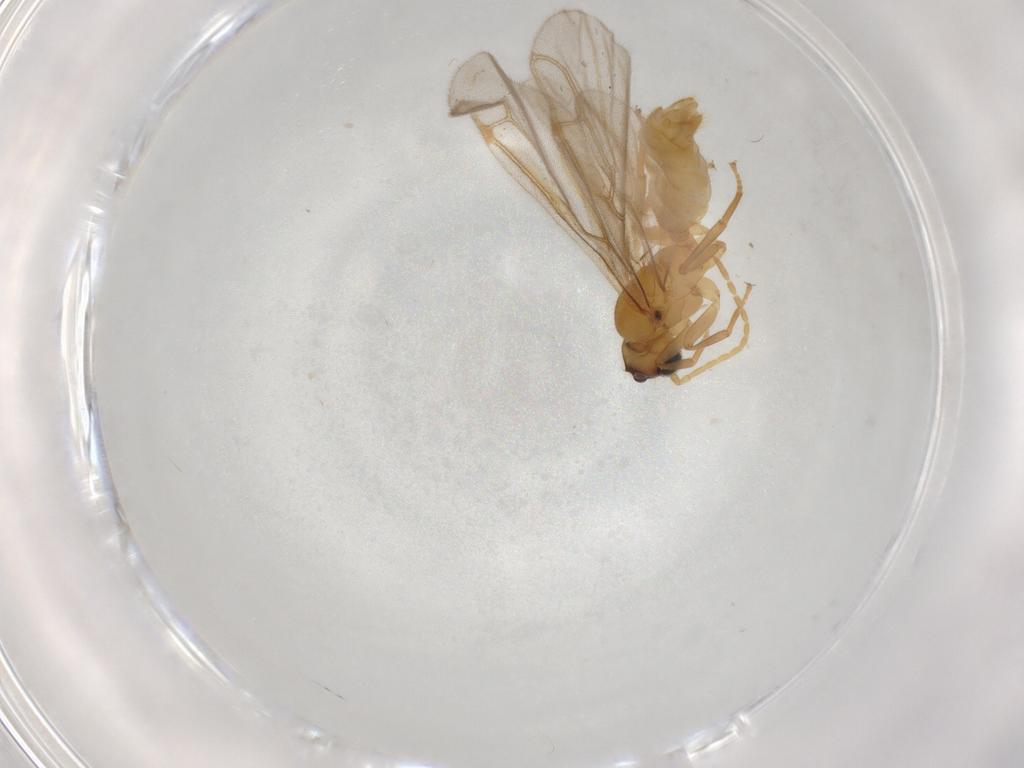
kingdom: Animalia
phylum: Arthropoda
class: Insecta
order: Hymenoptera
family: Formicidae
